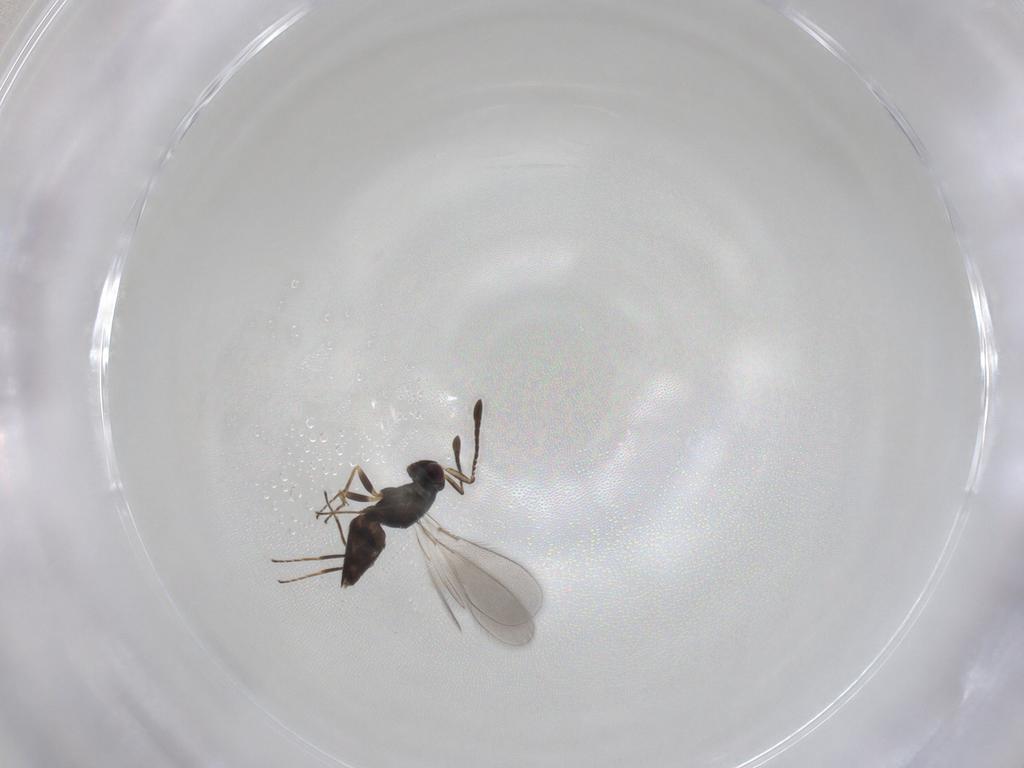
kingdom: Animalia
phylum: Arthropoda
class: Insecta
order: Hymenoptera
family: Mymaridae
